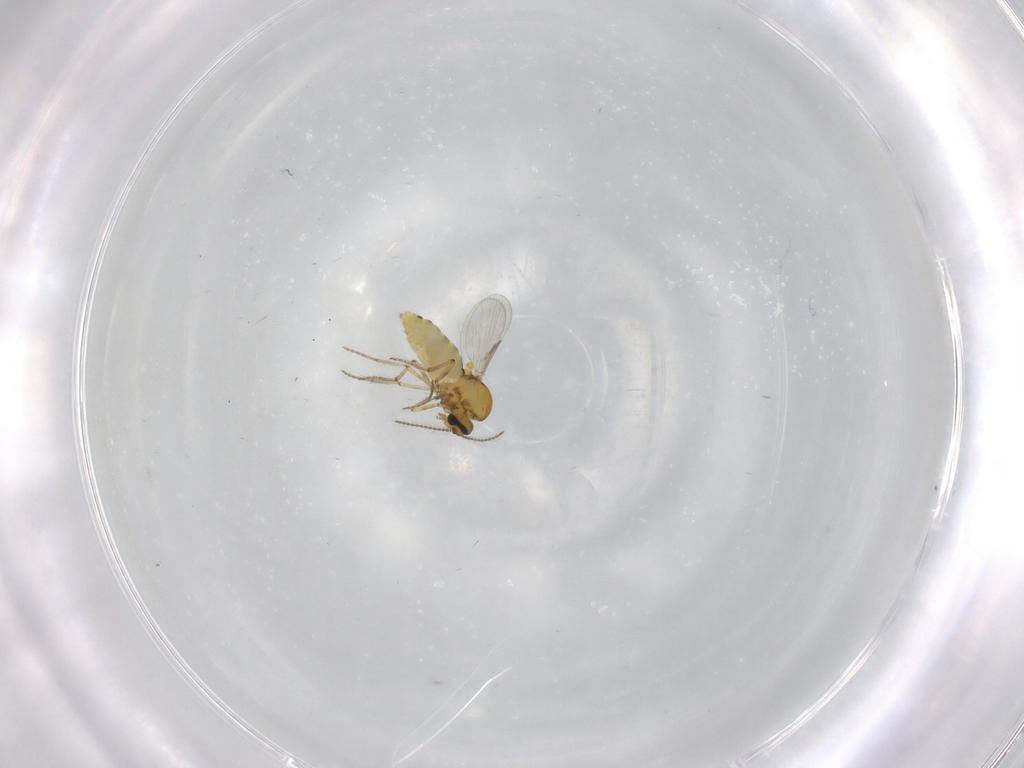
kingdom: Animalia
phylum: Arthropoda
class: Insecta
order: Diptera
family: Ceratopogonidae
